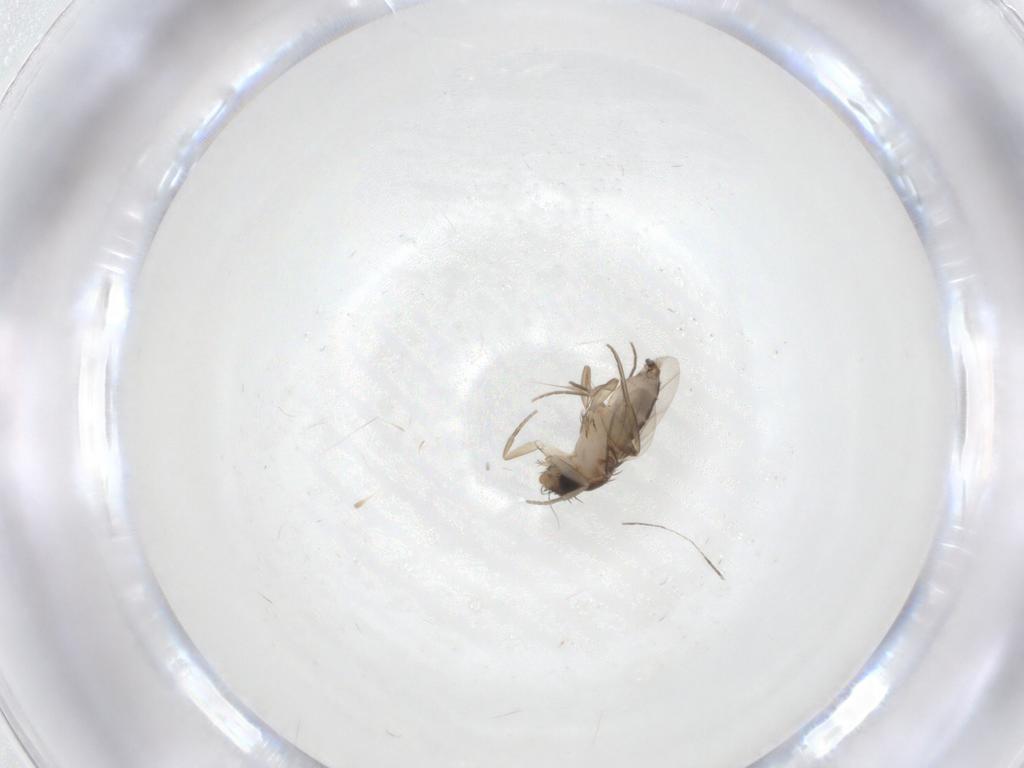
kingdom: Animalia
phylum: Arthropoda
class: Insecta
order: Diptera
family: Phoridae
